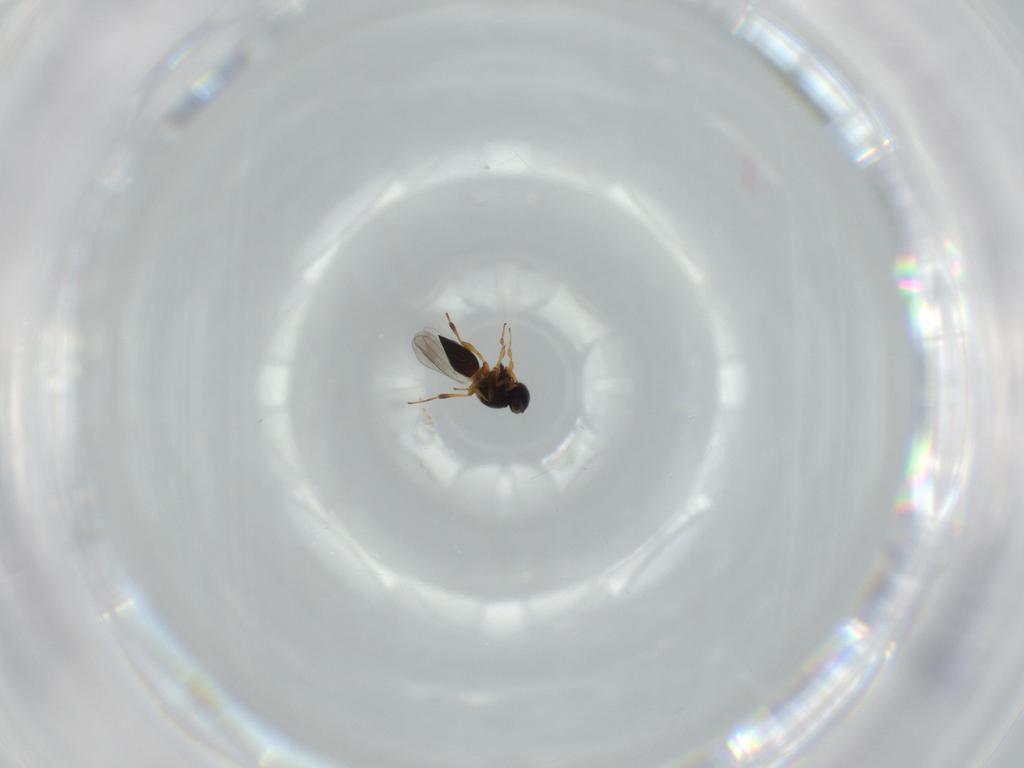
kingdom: Animalia
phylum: Arthropoda
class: Insecta
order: Hymenoptera
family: Platygastridae
